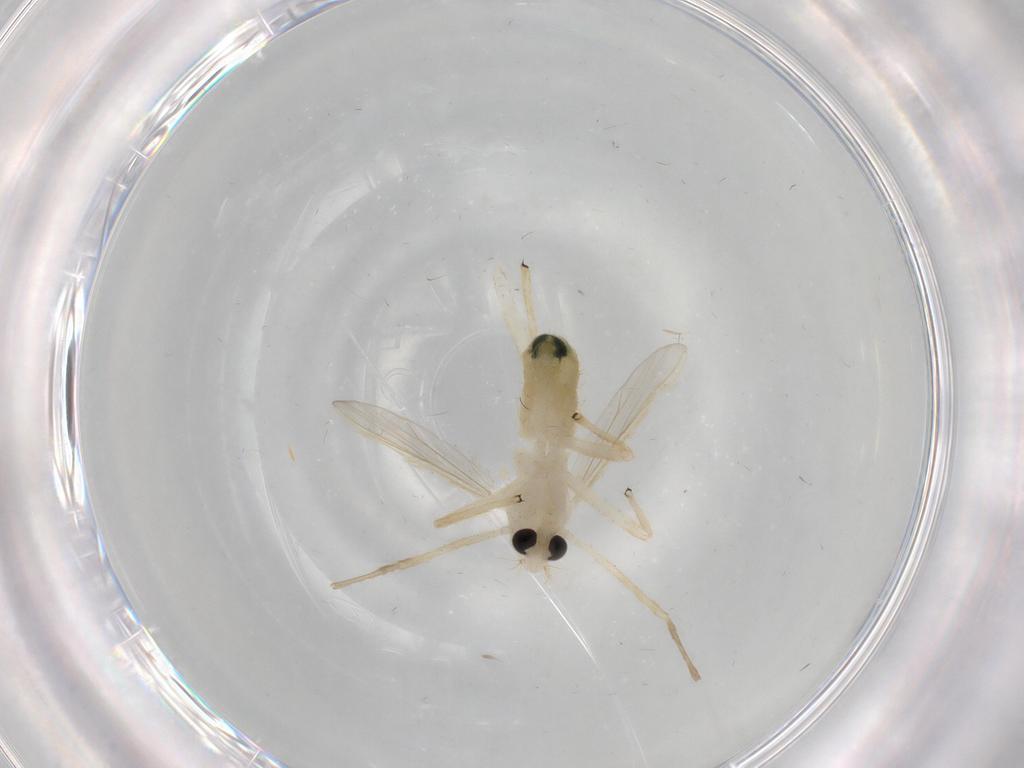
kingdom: Animalia
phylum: Arthropoda
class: Insecta
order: Diptera
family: Chironomidae
